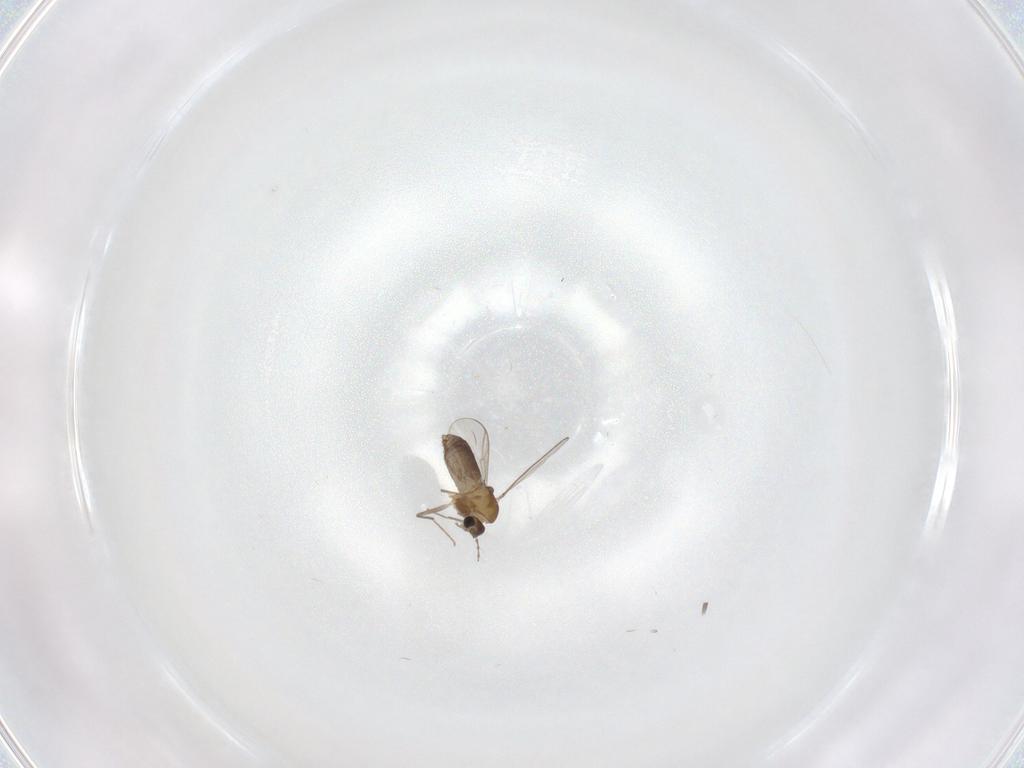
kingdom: Animalia
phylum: Arthropoda
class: Insecta
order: Diptera
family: Chironomidae
